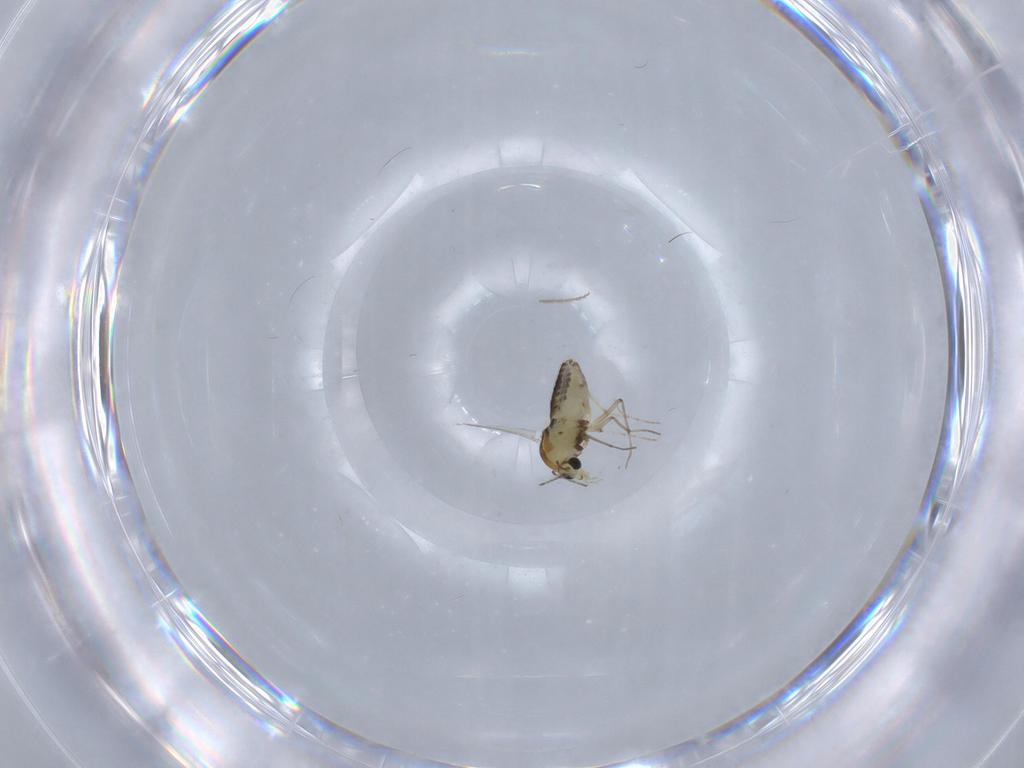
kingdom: Animalia
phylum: Arthropoda
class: Insecta
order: Diptera
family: Chironomidae
